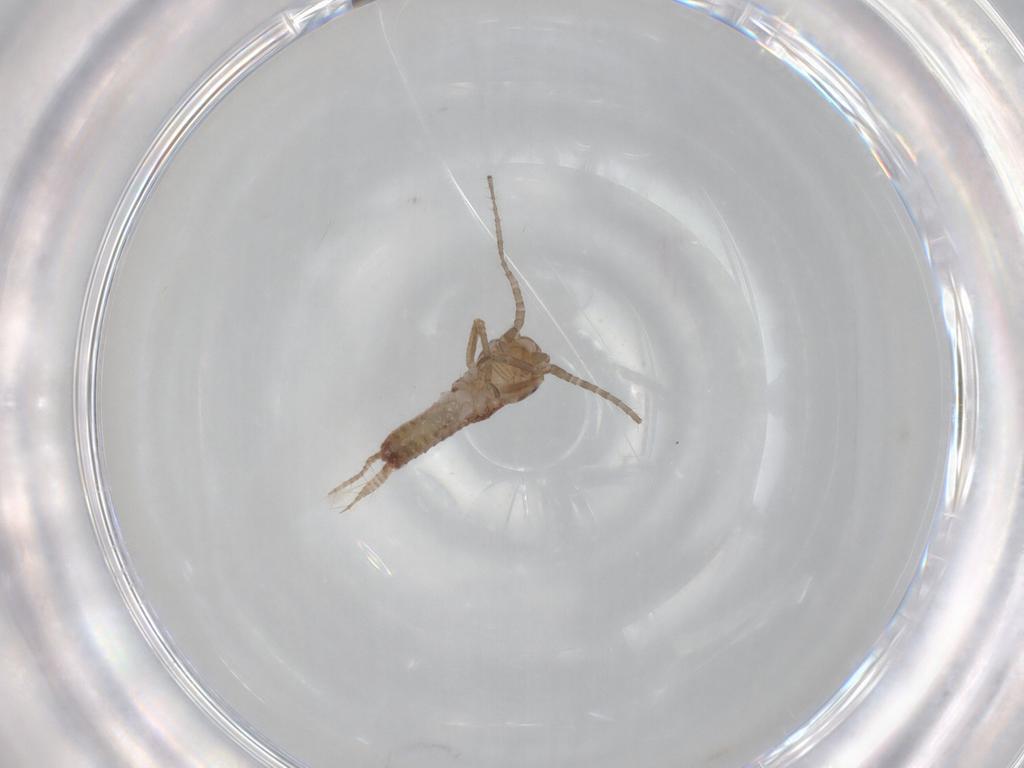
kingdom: Animalia
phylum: Arthropoda
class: Insecta
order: Orthoptera
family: Mogoplistidae
